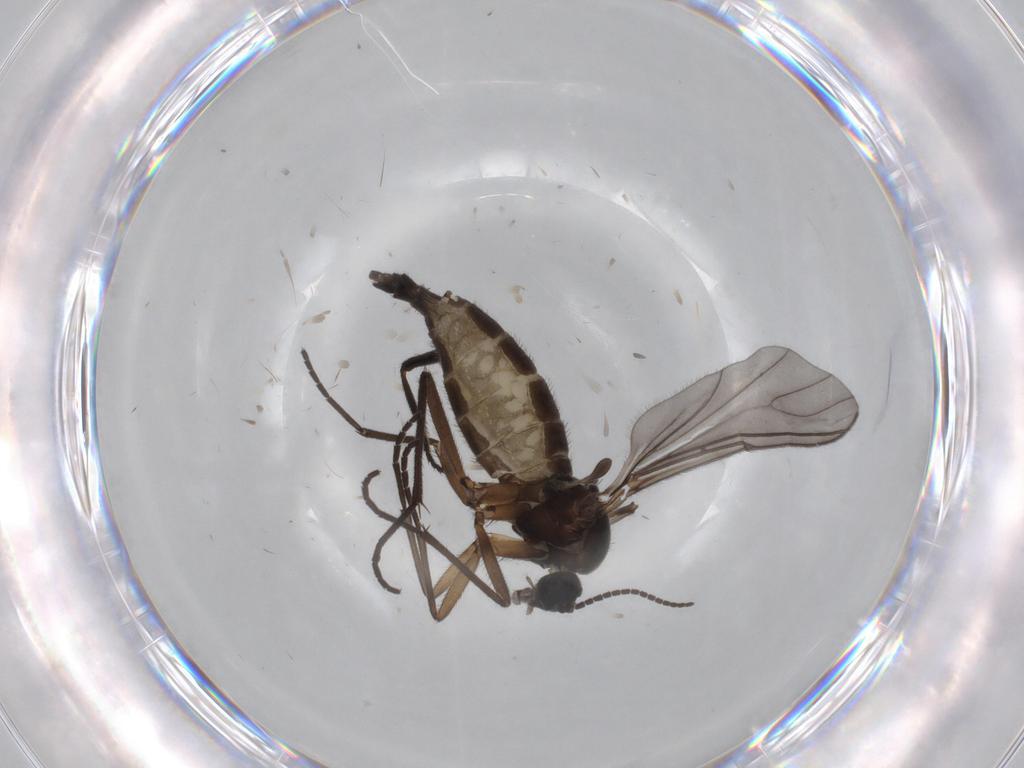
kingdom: Animalia
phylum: Arthropoda
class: Insecta
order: Diptera
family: Sciaridae
